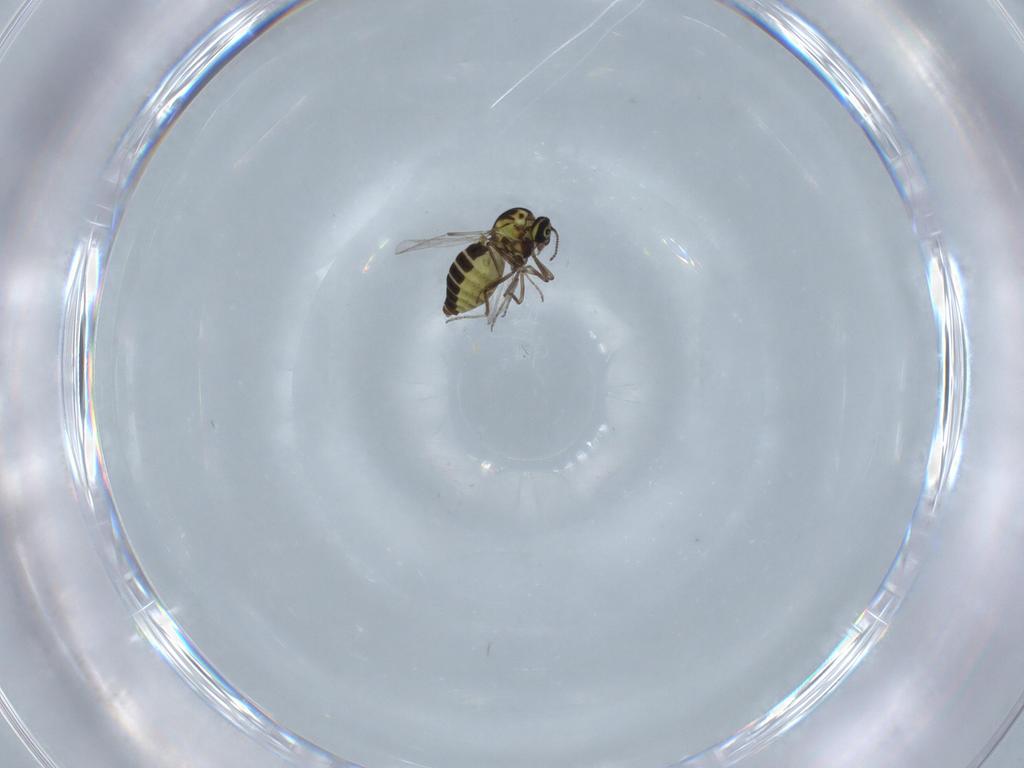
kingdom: Animalia
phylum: Arthropoda
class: Insecta
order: Diptera
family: Ceratopogonidae
